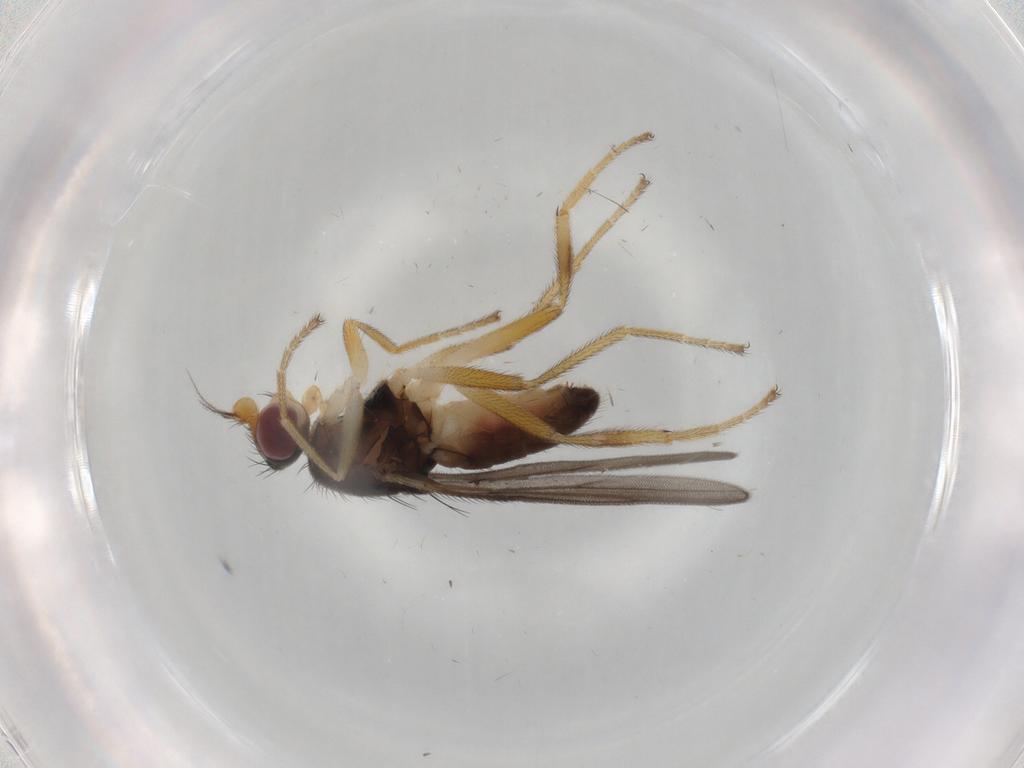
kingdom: Animalia
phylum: Arthropoda
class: Insecta
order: Diptera
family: Chloropidae
